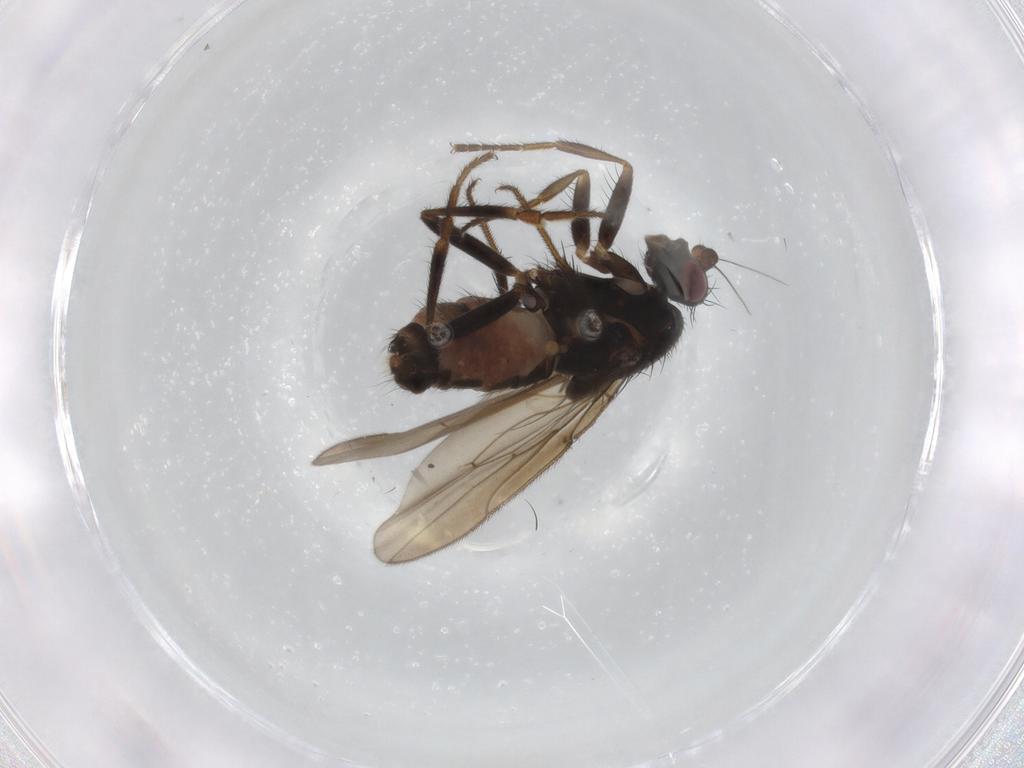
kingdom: Animalia
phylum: Arthropoda
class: Insecta
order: Diptera
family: Sphaeroceridae
